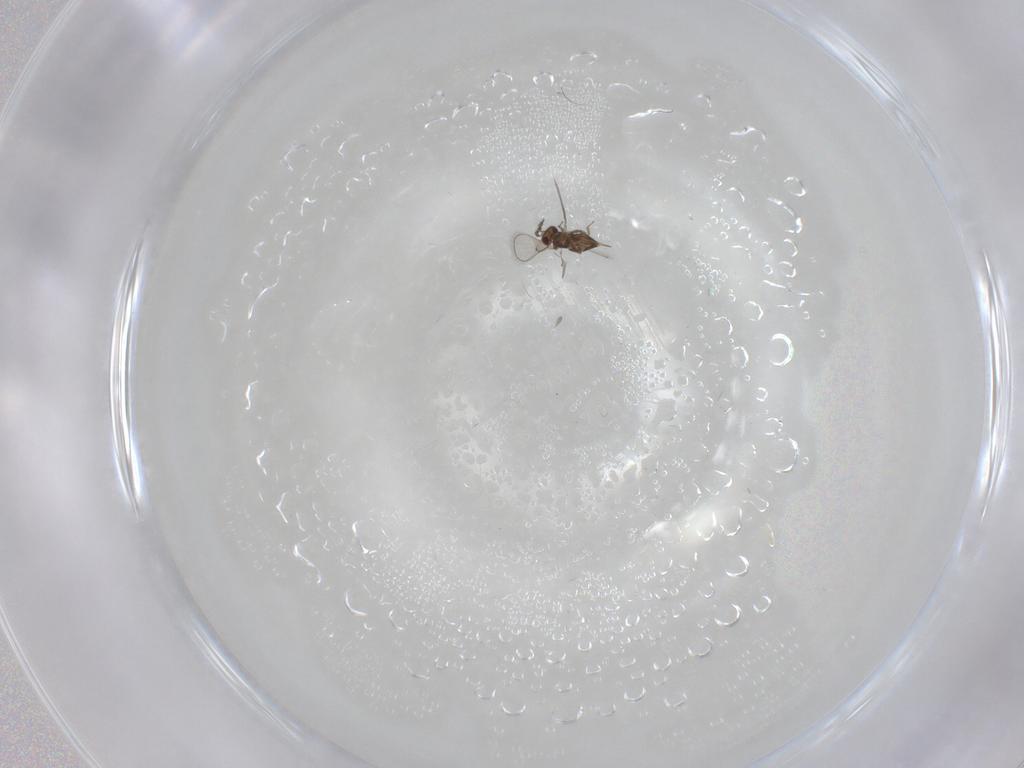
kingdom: Animalia
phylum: Arthropoda
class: Insecta
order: Hymenoptera
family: Trichogrammatidae
